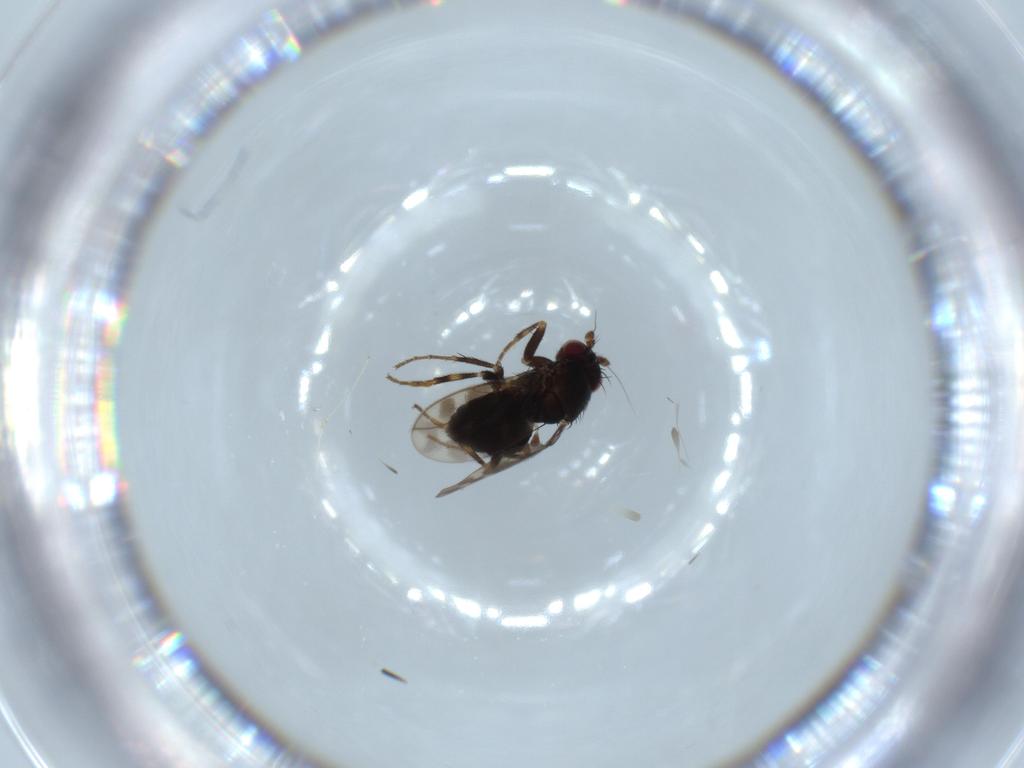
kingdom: Animalia
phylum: Arthropoda
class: Insecta
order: Diptera
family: Sphaeroceridae
